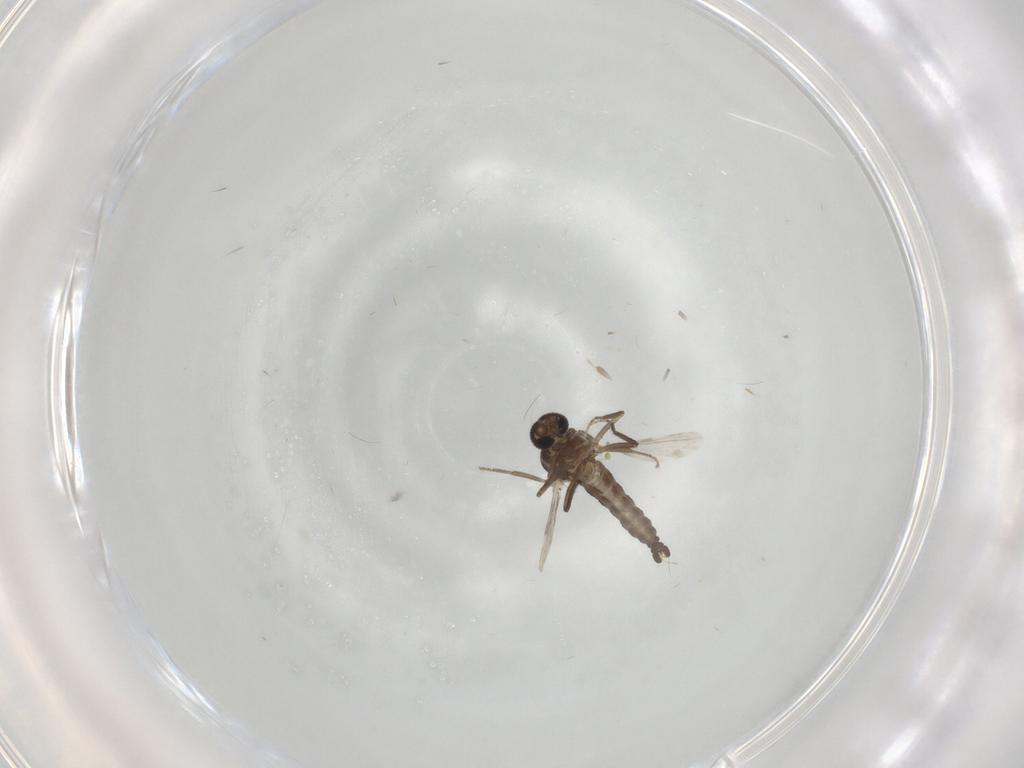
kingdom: Animalia
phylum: Arthropoda
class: Insecta
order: Diptera
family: Ceratopogonidae
